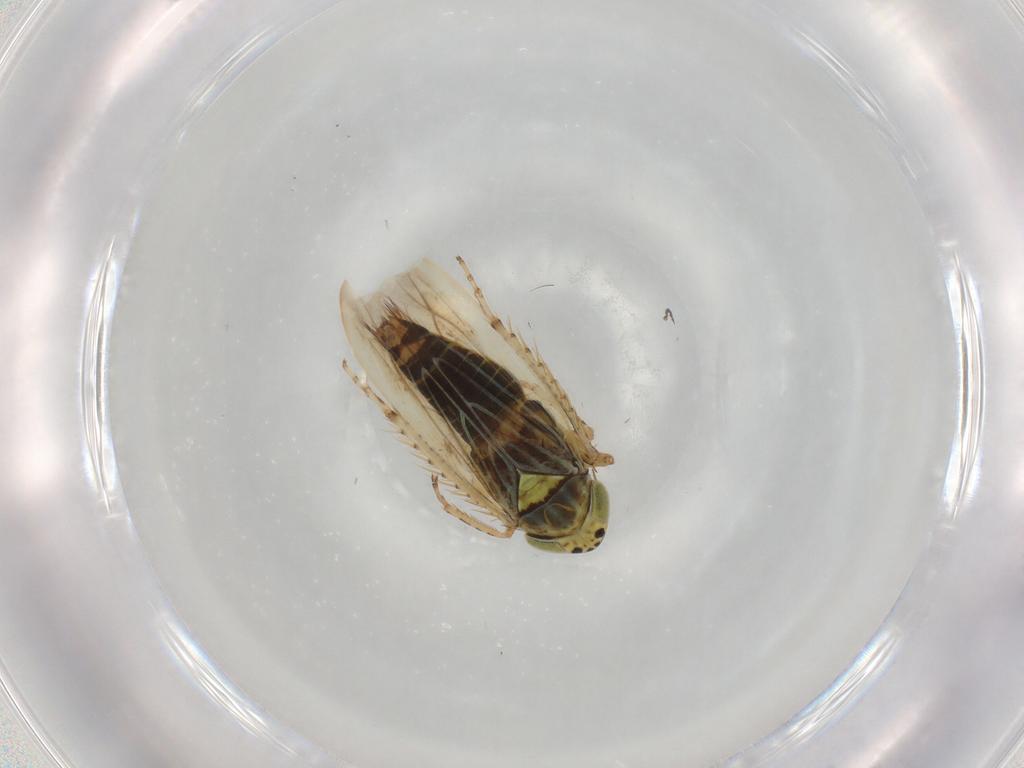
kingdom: Animalia
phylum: Arthropoda
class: Insecta
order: Hemiptera
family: Cicadellidae
